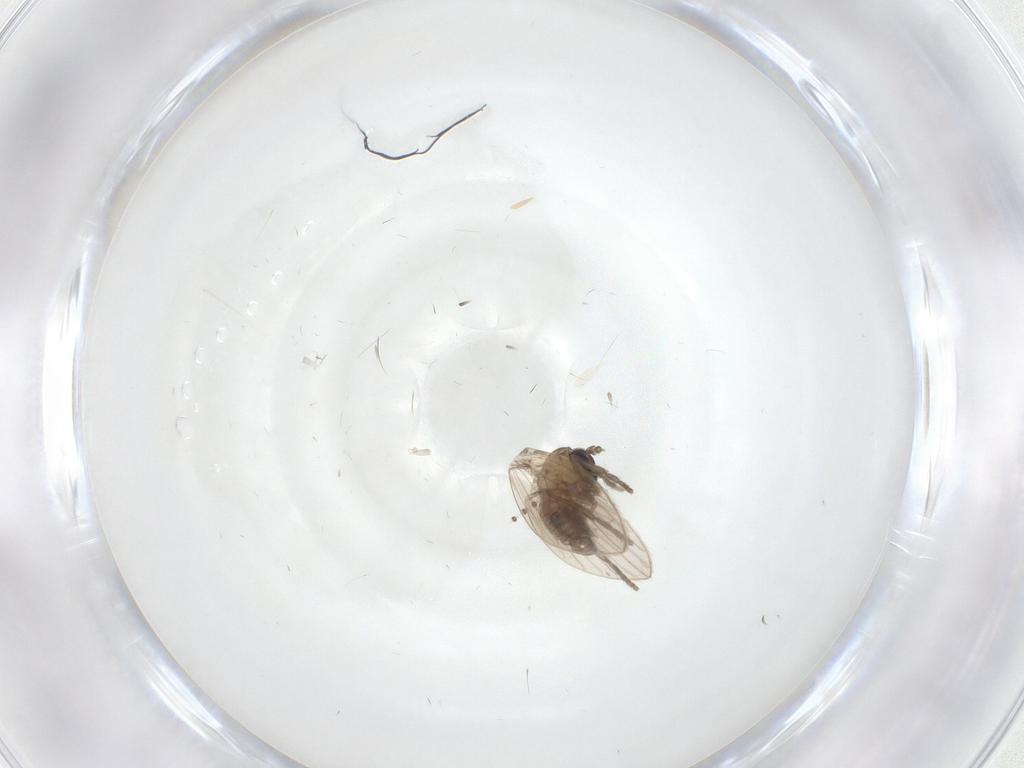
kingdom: Animalia
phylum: Arthropoda
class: Insecta
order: Diptera
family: Psychodidae
